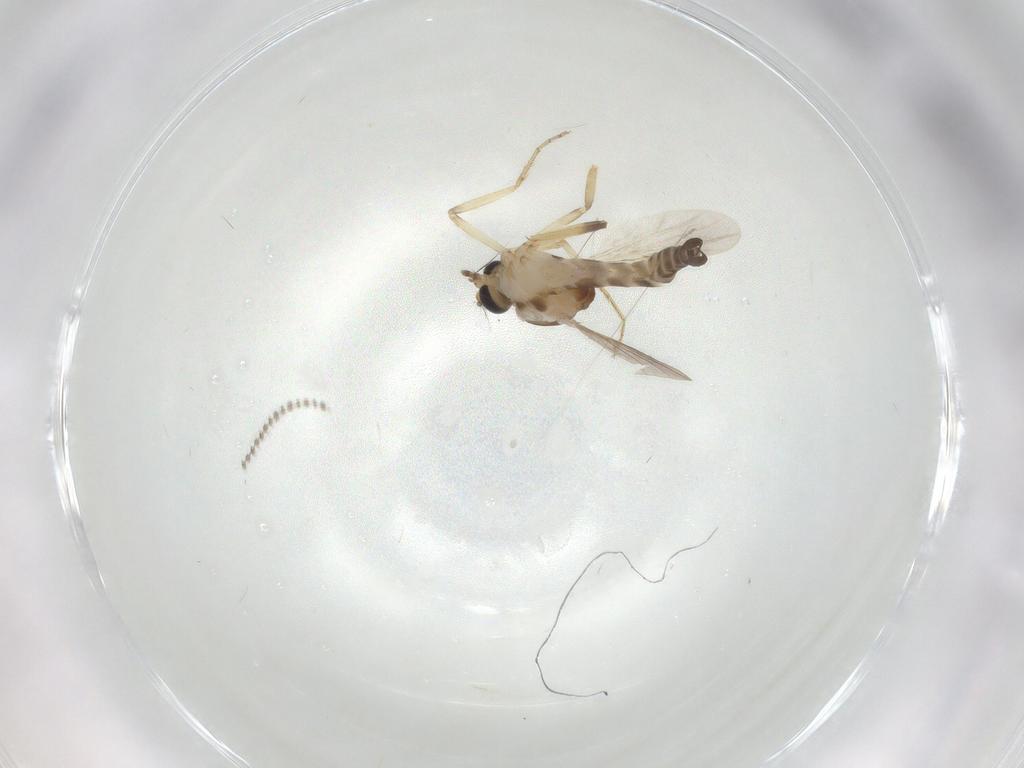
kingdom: Animalia
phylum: Arthropoda
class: Insecta
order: Diptera
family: Ceratopogonidae
